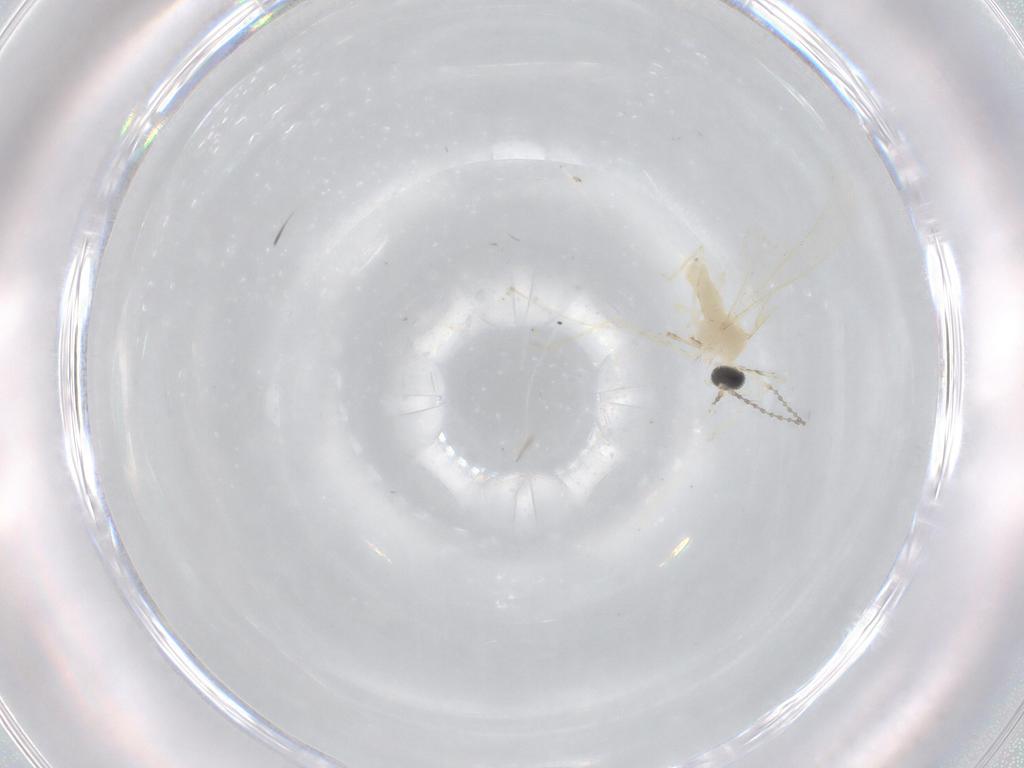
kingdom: Animalia
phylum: Arthropoda
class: Insecta
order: Diptera
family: Cecidomyiidae
